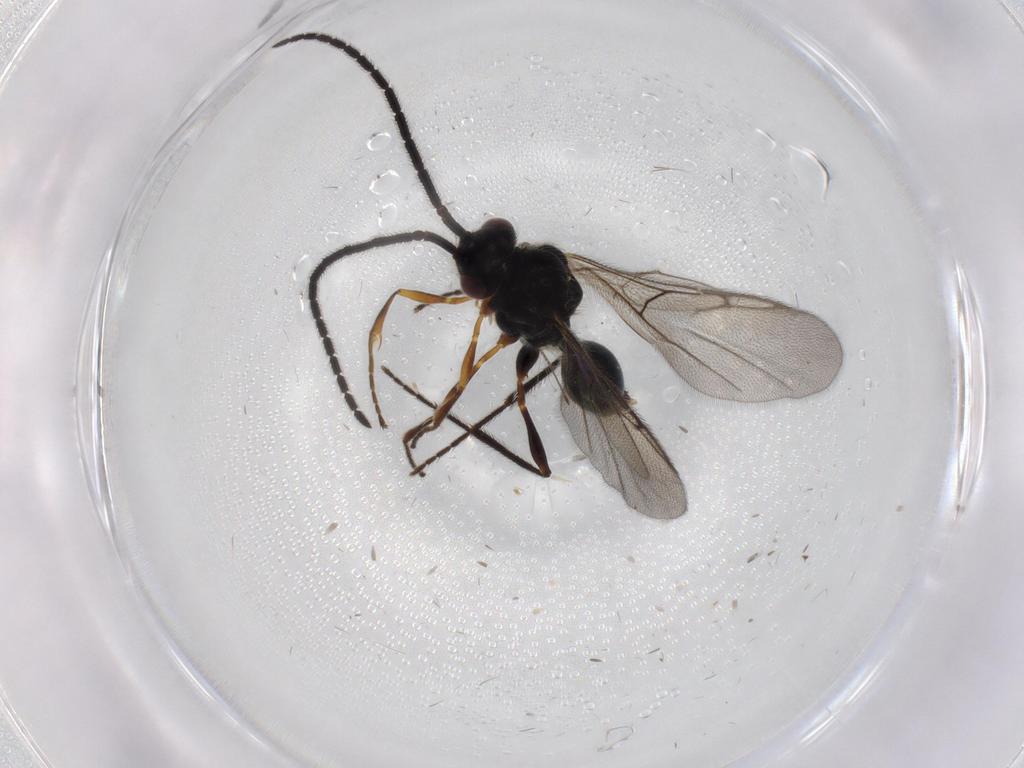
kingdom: Animalia
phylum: Arthropoda
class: Insecta
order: Hymenoptera
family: Diapriidae
